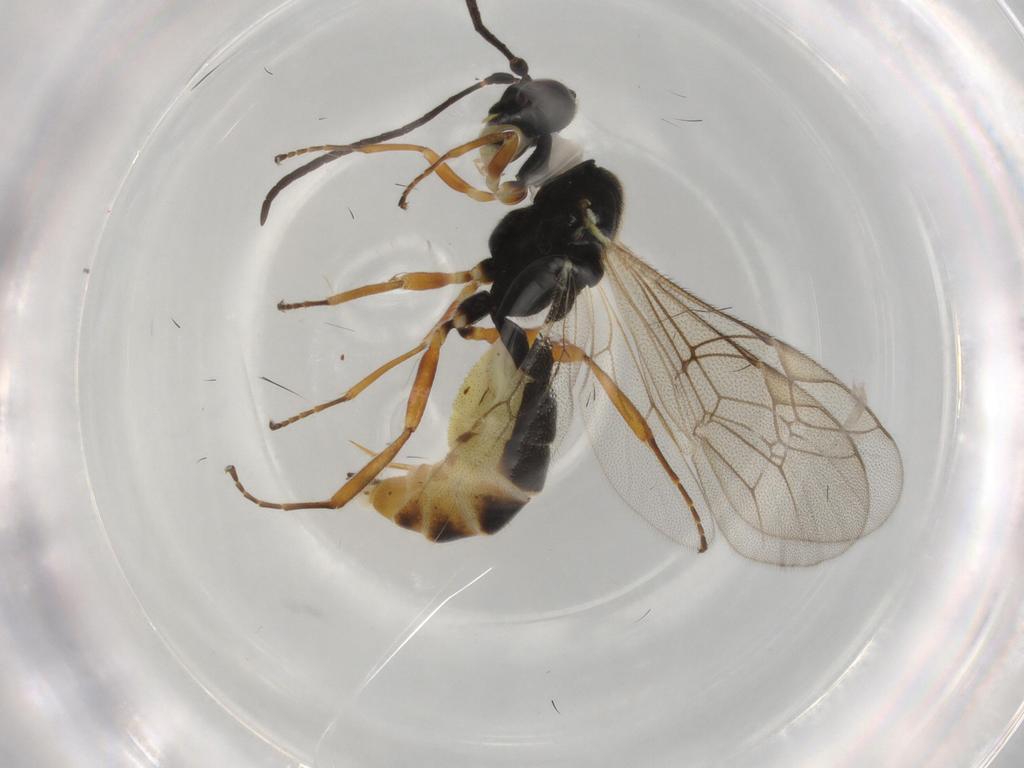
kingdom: Animalia
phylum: Arthropoda
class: Insecta
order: Hymenoptera
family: Ichneumonidae
